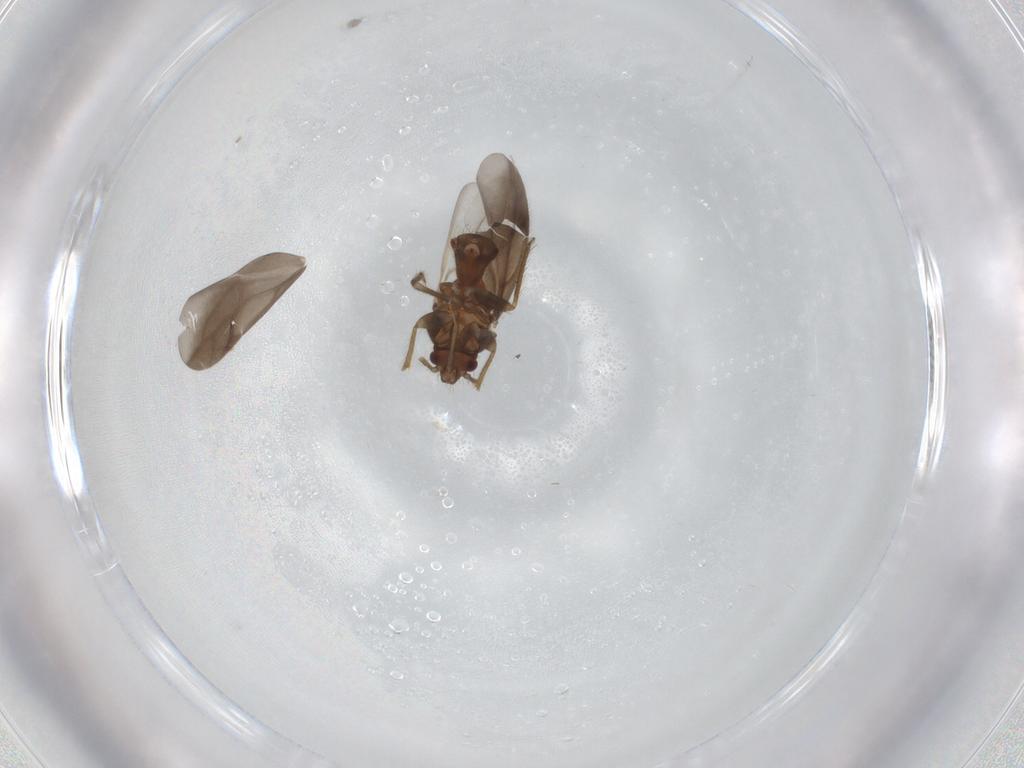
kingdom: Animalia
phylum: Arthropoda
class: Insecta
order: Hemiptera
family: Ceratocombidae
